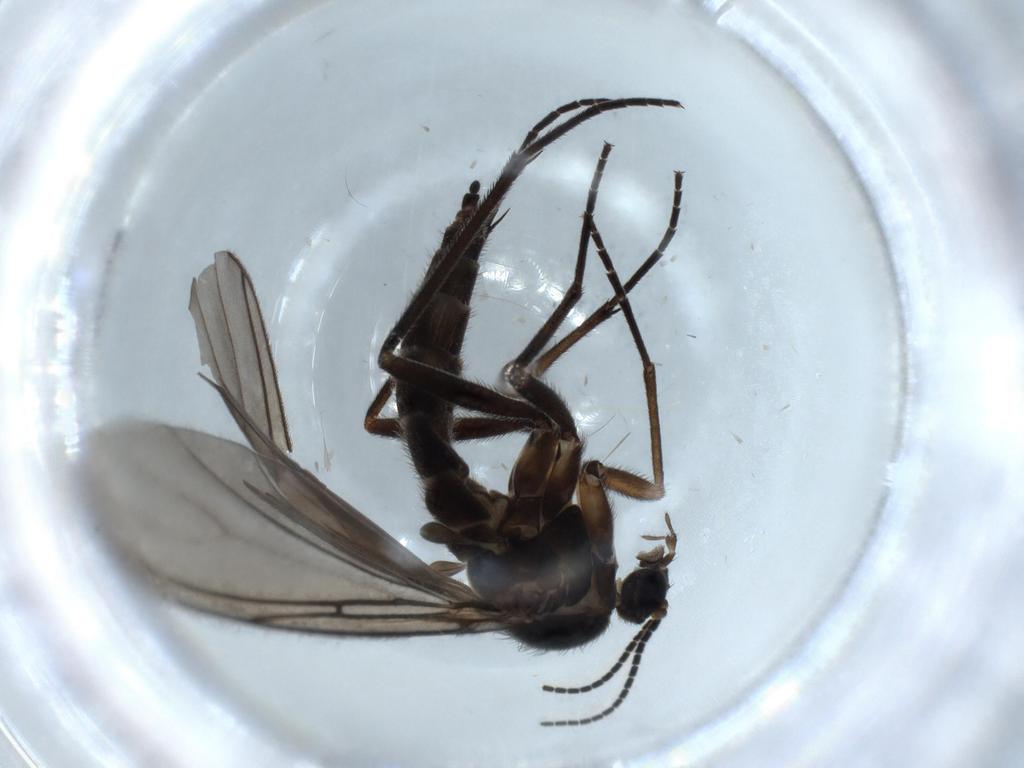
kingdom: Animalia
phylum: Arthropoda
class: Insecta
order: Diptera
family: Sciaridae
